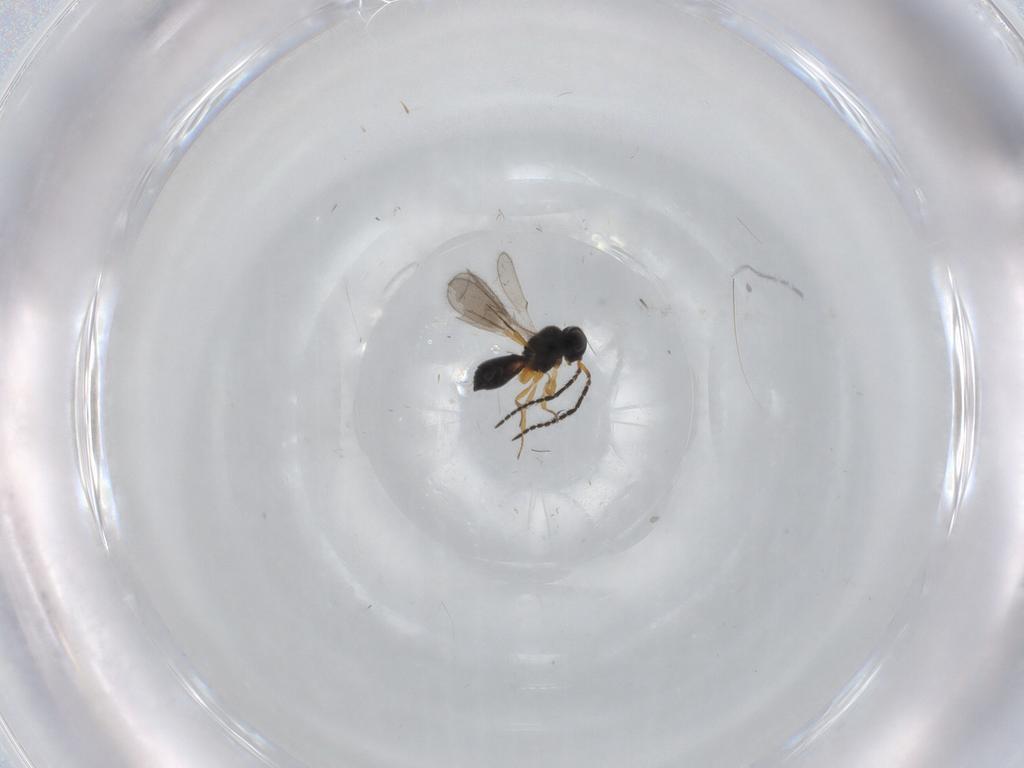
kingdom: Animalia
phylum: Arthropoda
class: Insecta
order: Hymenoptera
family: Scelionidae
